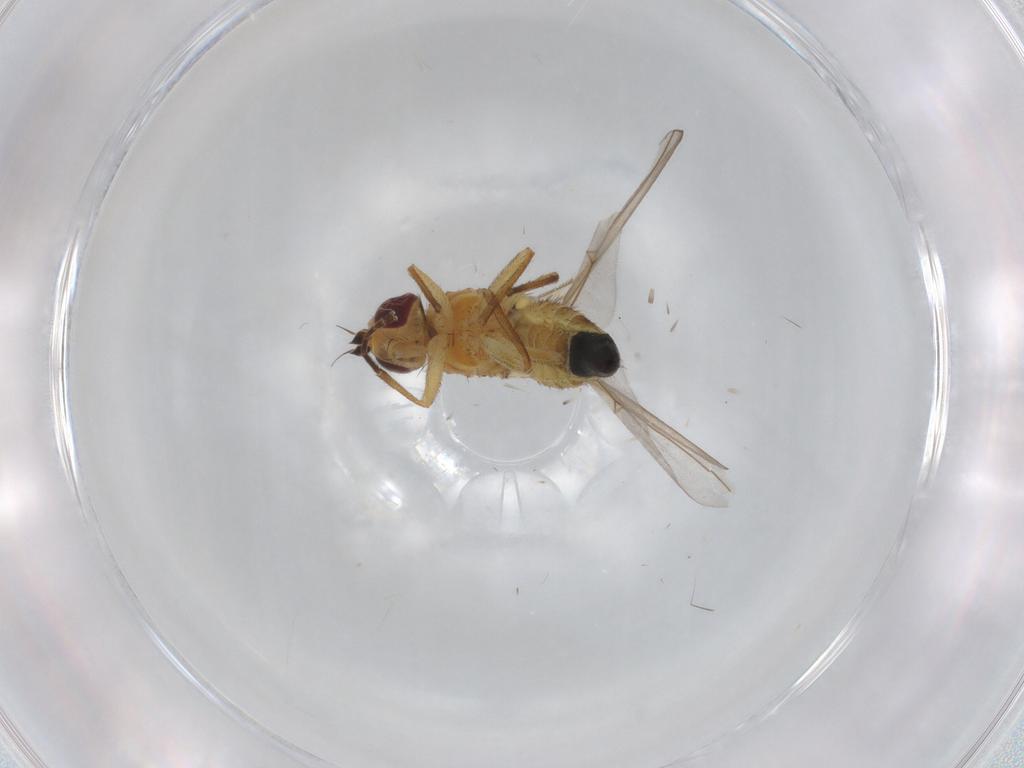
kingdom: Animalia
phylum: Arthropoda
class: Insecta
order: Diptera
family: Agromyzidae
